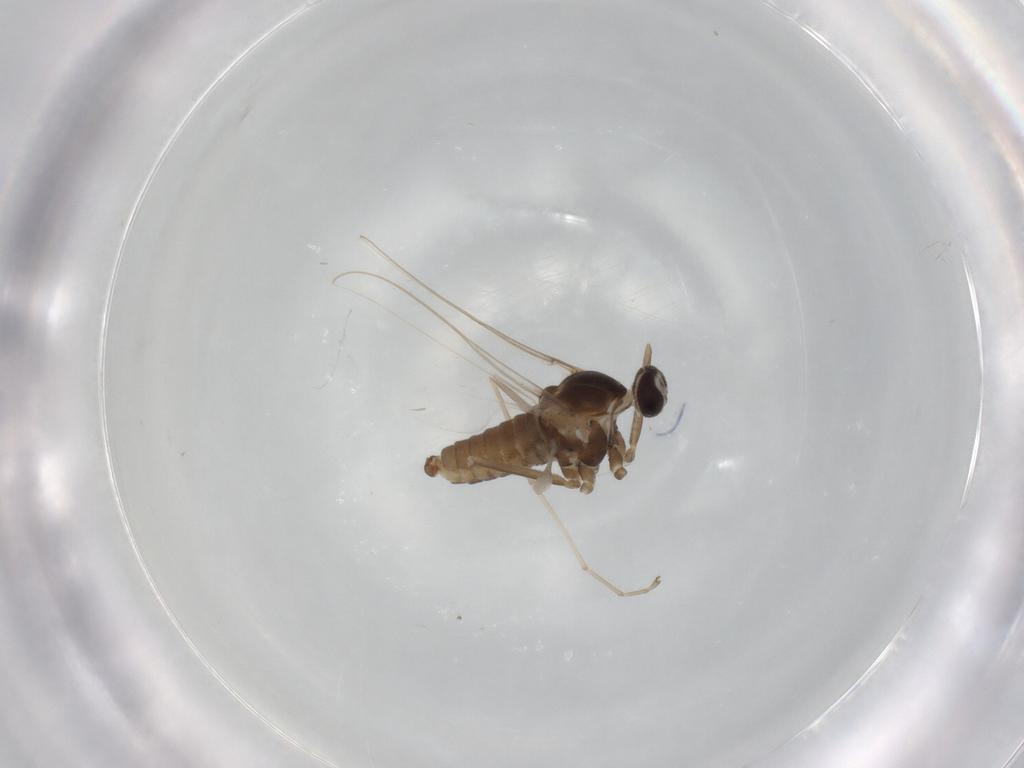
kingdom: Animalia
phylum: Arthropoda
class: Insecta
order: Diptera
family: Cecidomyiidae
